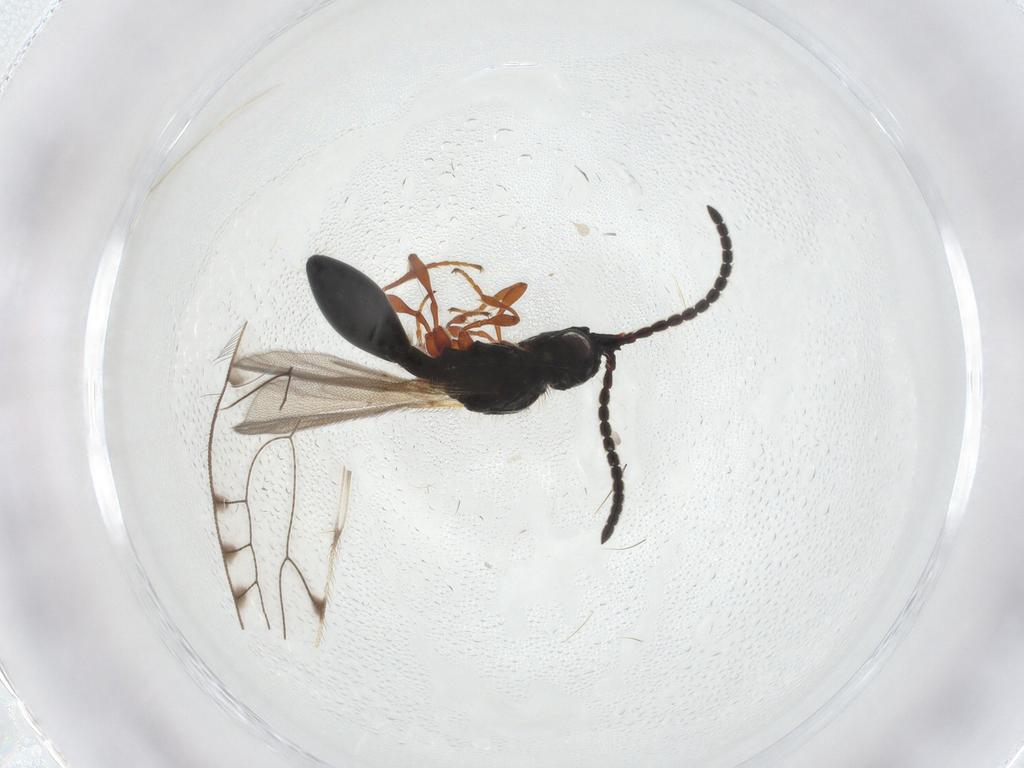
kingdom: Animalia
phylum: Arthropoda
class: Insecta
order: Hymenoptera
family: Diapriidae
